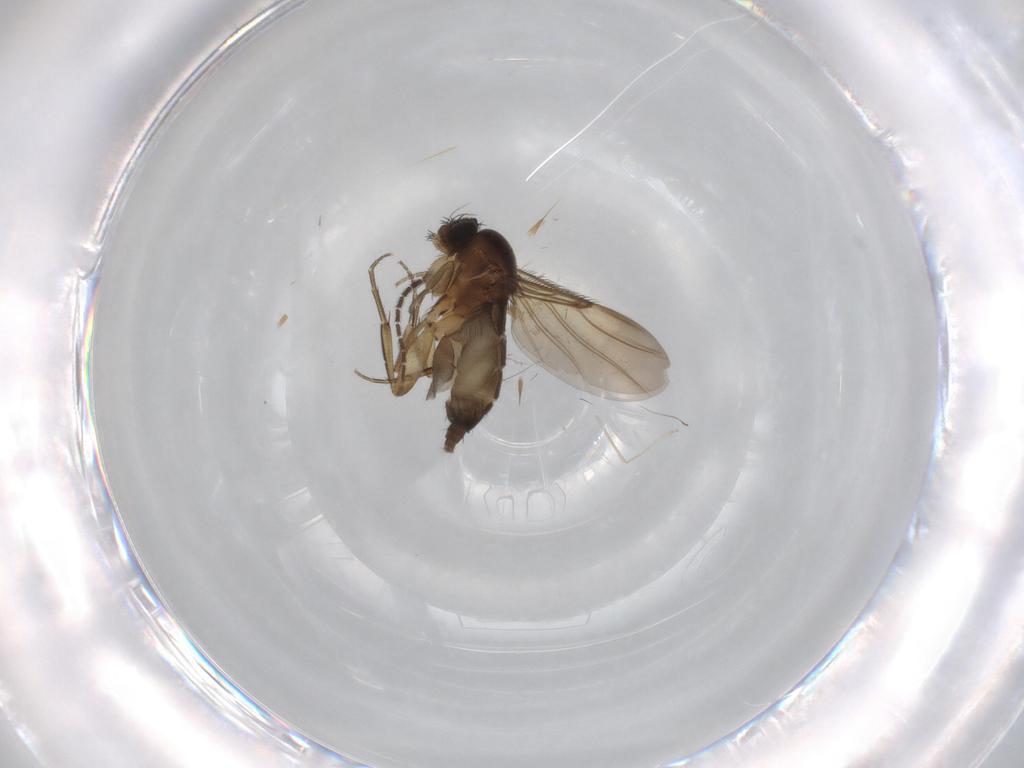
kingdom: Animalia
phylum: Arthropoda
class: Insecta
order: Diptera
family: Phoridae
